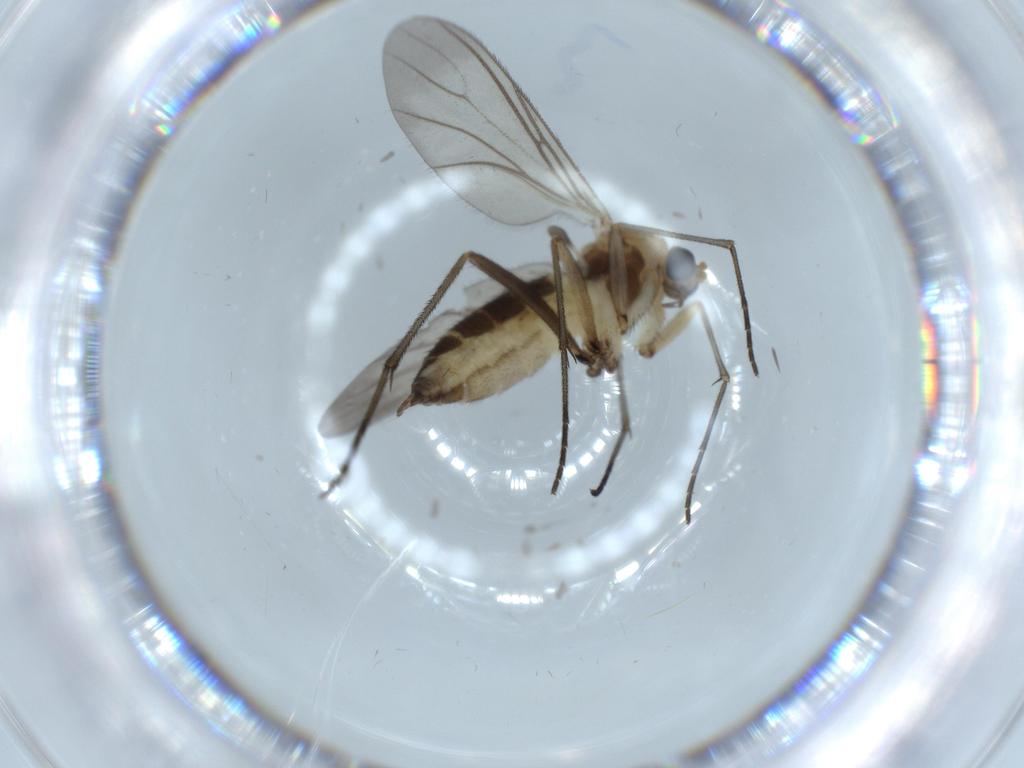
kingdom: Animalia
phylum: Arthropoda
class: Insecta
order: Diptera
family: Sciaridae
